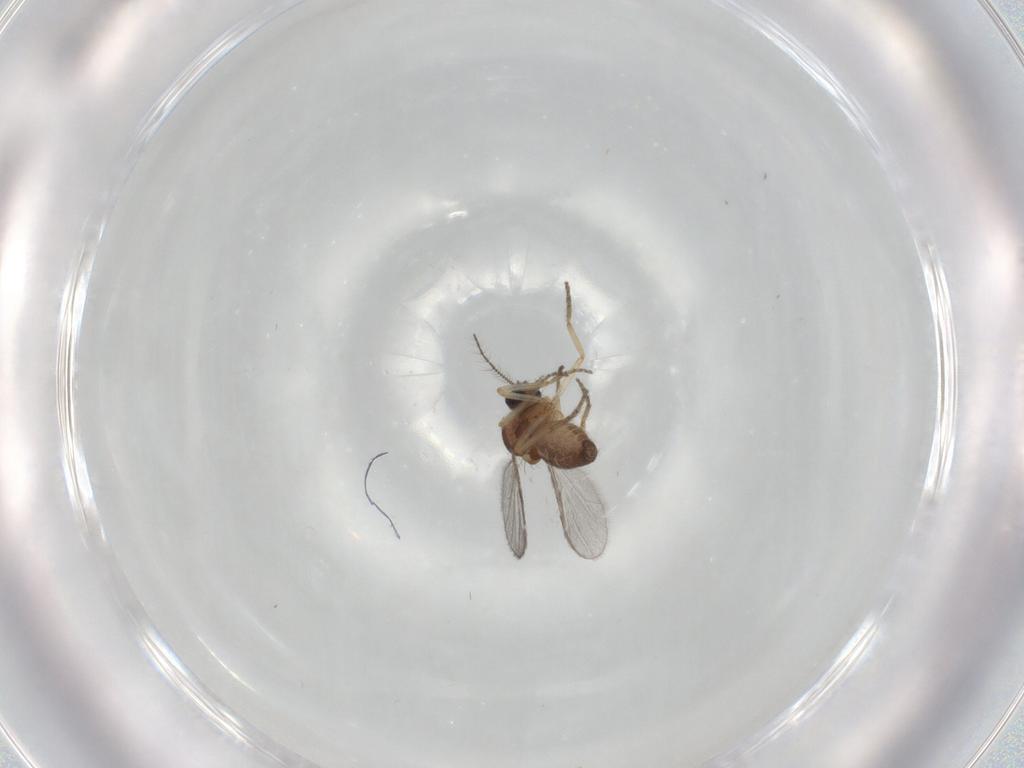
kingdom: Animalia
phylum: Arthropoda
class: Insecta
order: Diptera
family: Ceratopogonidae
